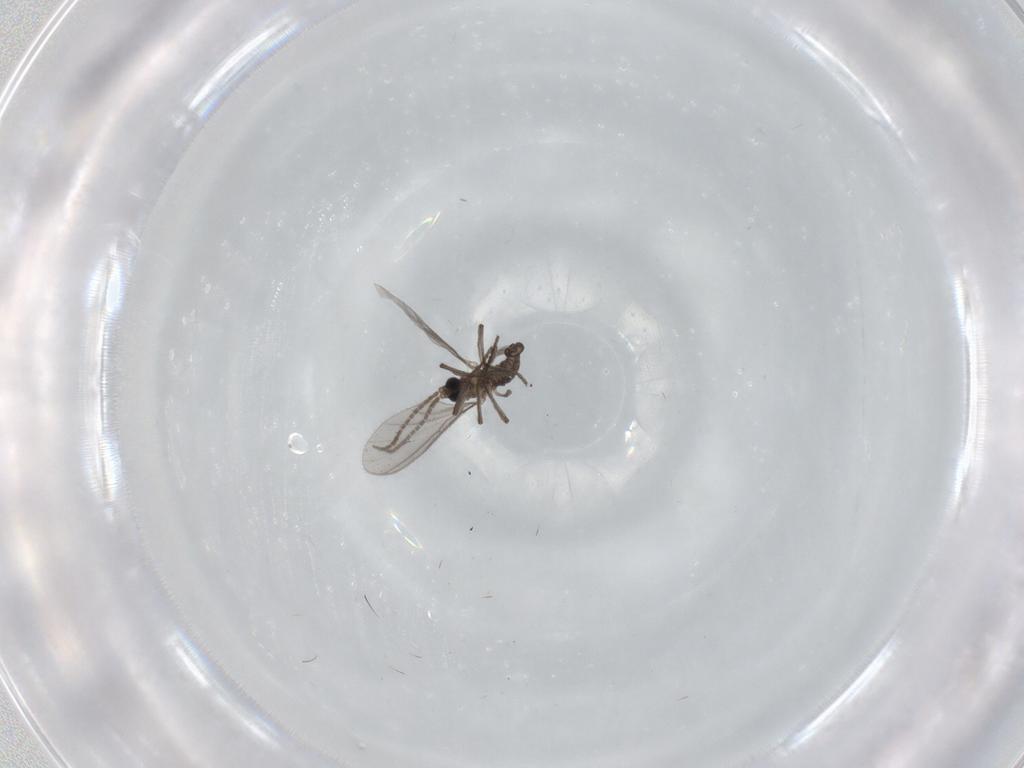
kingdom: Animalia
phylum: Arthropoda
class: Insecta
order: Diptera
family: Sciaridae
